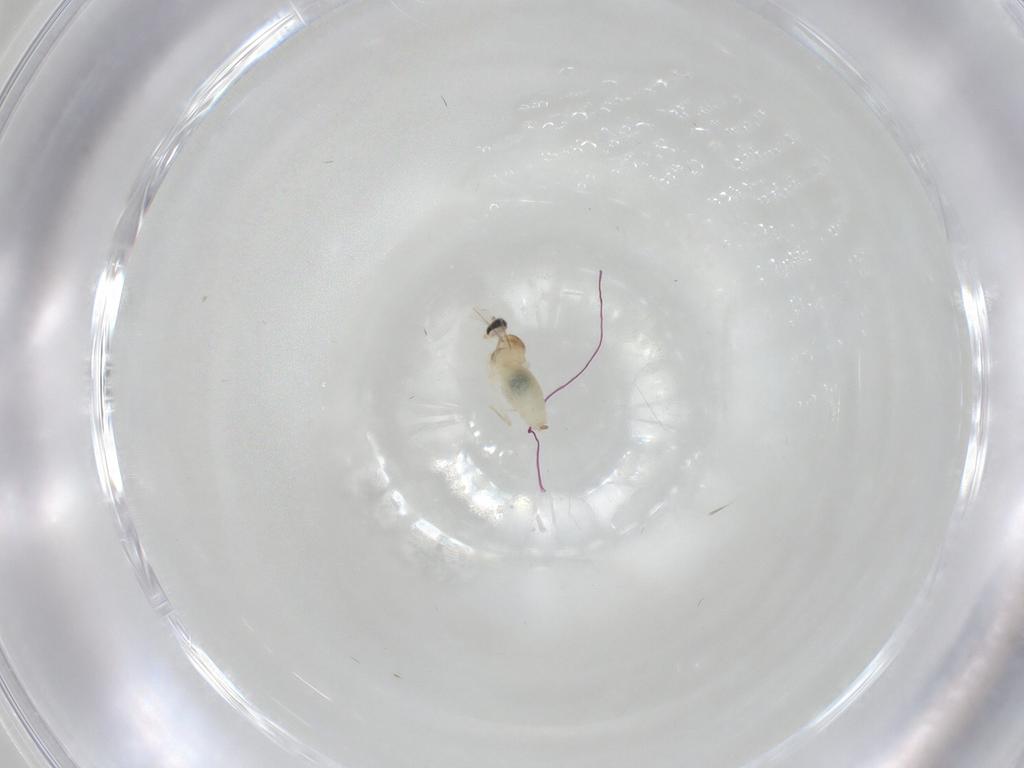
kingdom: Animalia
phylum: Arthropoda
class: Insecta
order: Diptera
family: Cecidomyiidae
